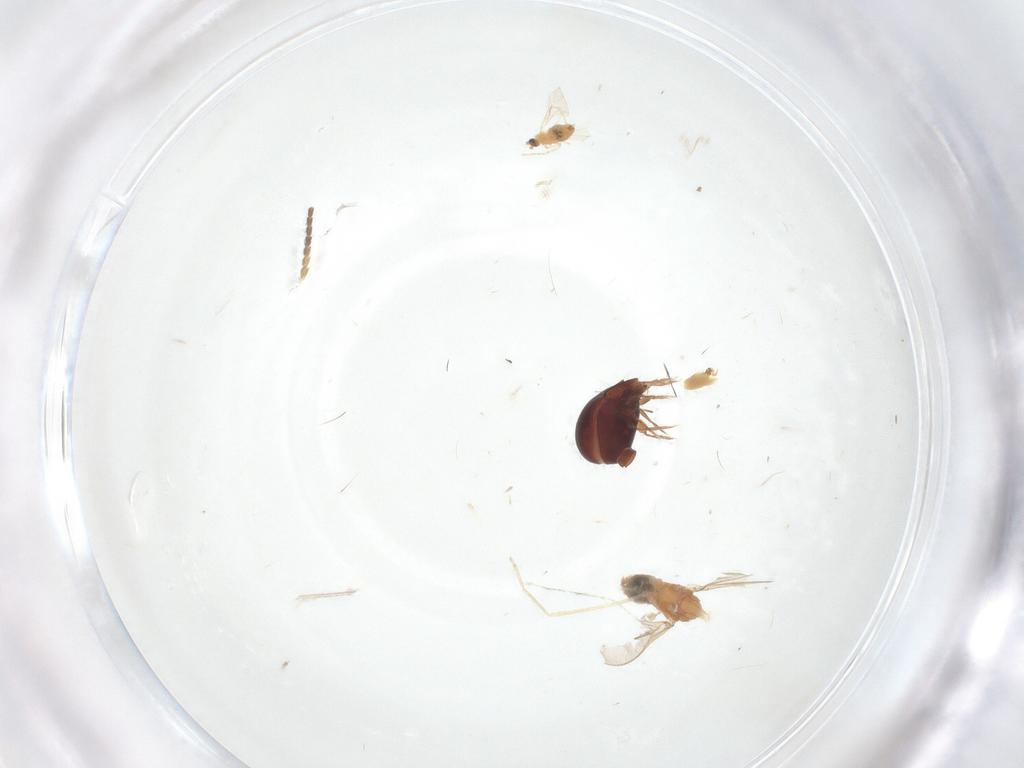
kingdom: Animalia
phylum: Arthropoda
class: Insecta
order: Diptera
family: Cecidomyiidae
